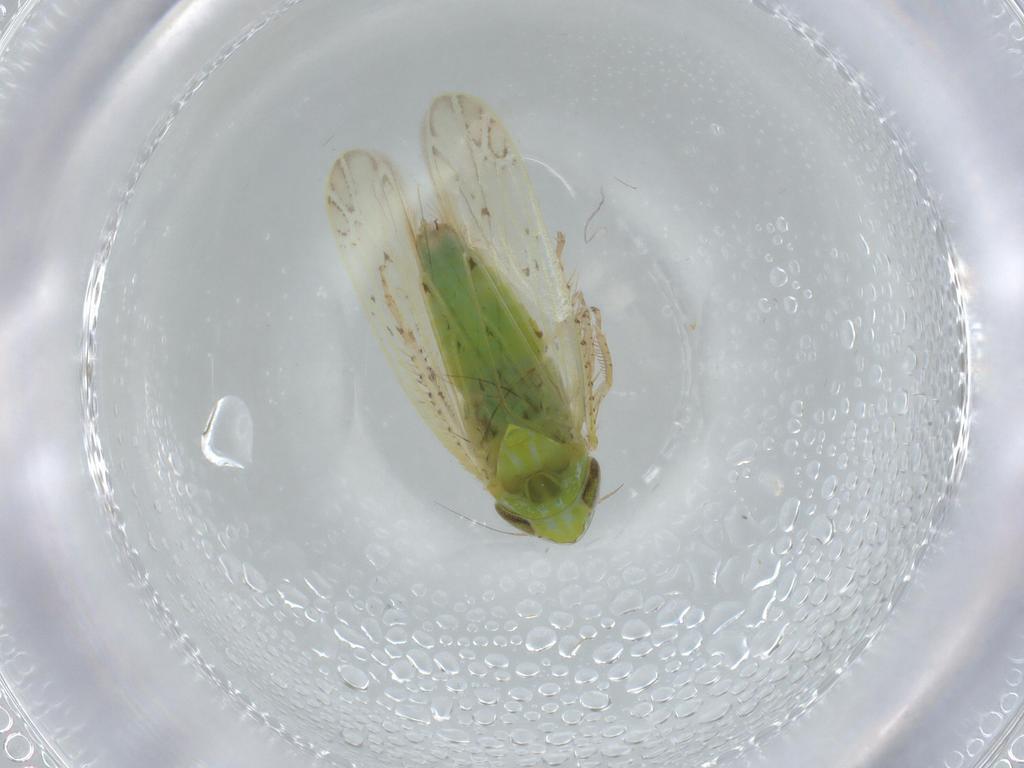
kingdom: Animalia
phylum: Arthropoda
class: Insecta
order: Hemiptera
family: Cicadellidae
